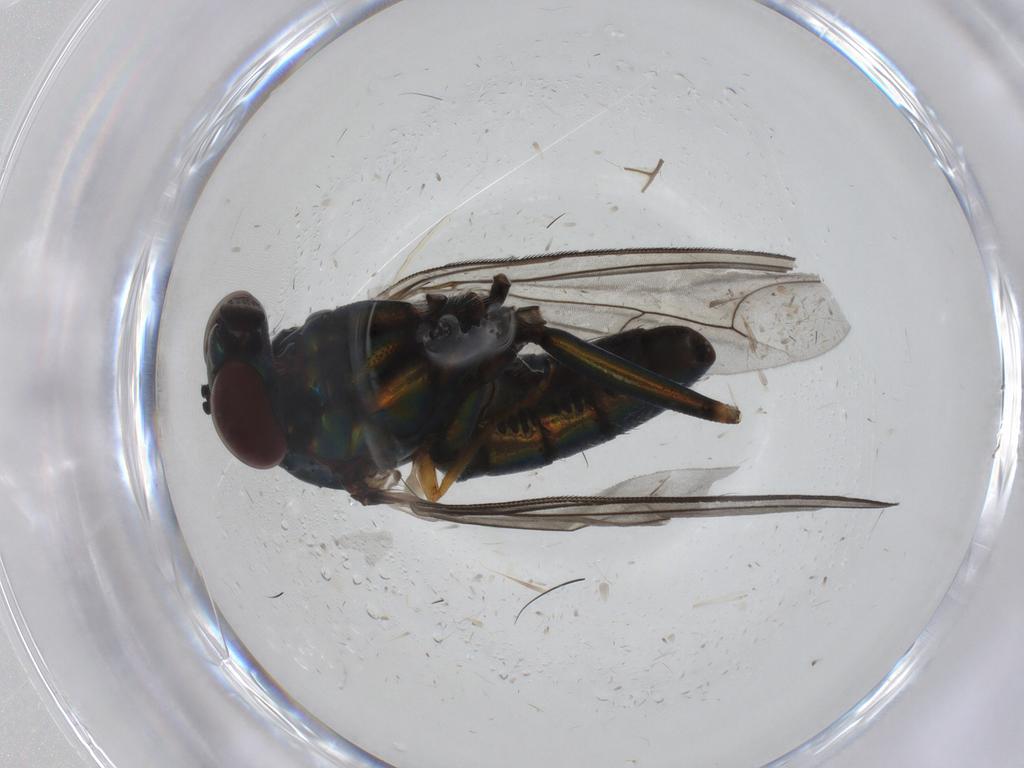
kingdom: Animalia
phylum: Arthropoda
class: Insecta
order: Diptera
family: Dolichopodidae
